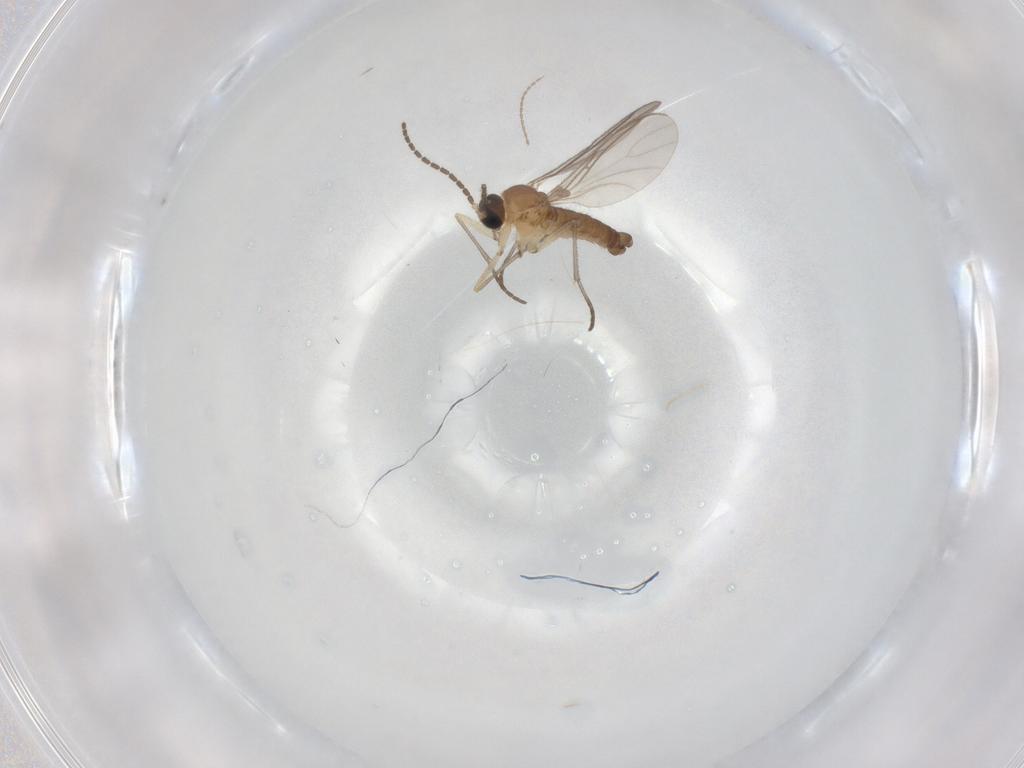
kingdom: Animalia
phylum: Arthropoda
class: Insecta
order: Diptera
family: Sciaridae
